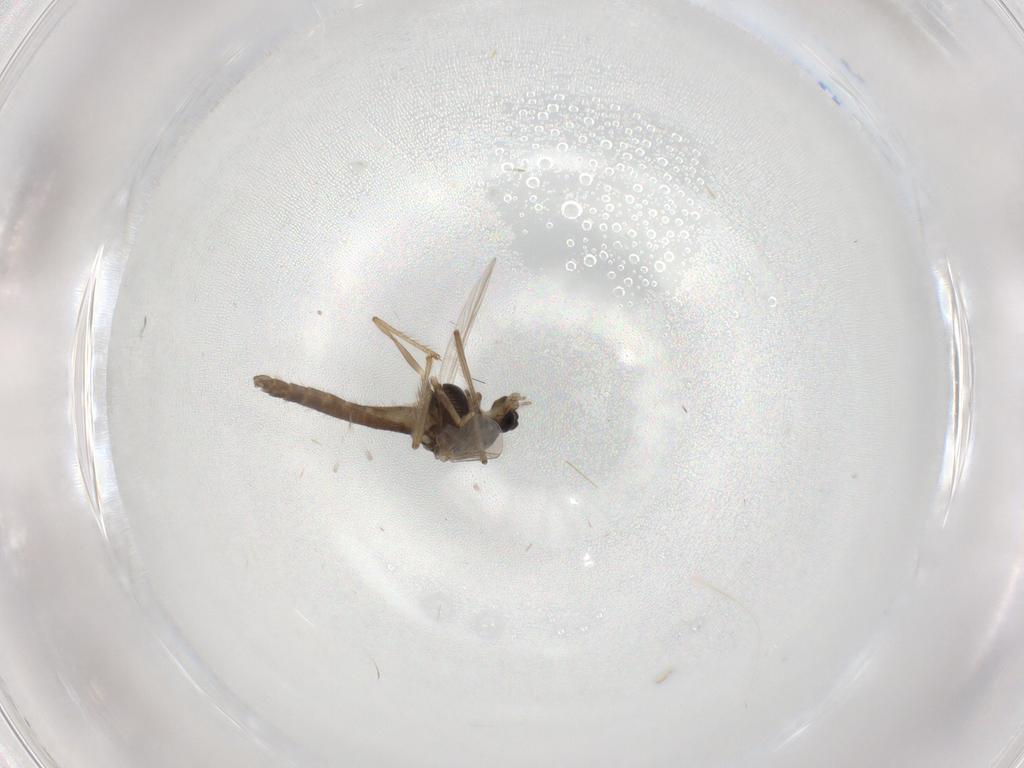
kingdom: Animalia
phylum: Arthropoda
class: Insecta
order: Diptera
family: Chironomidae
